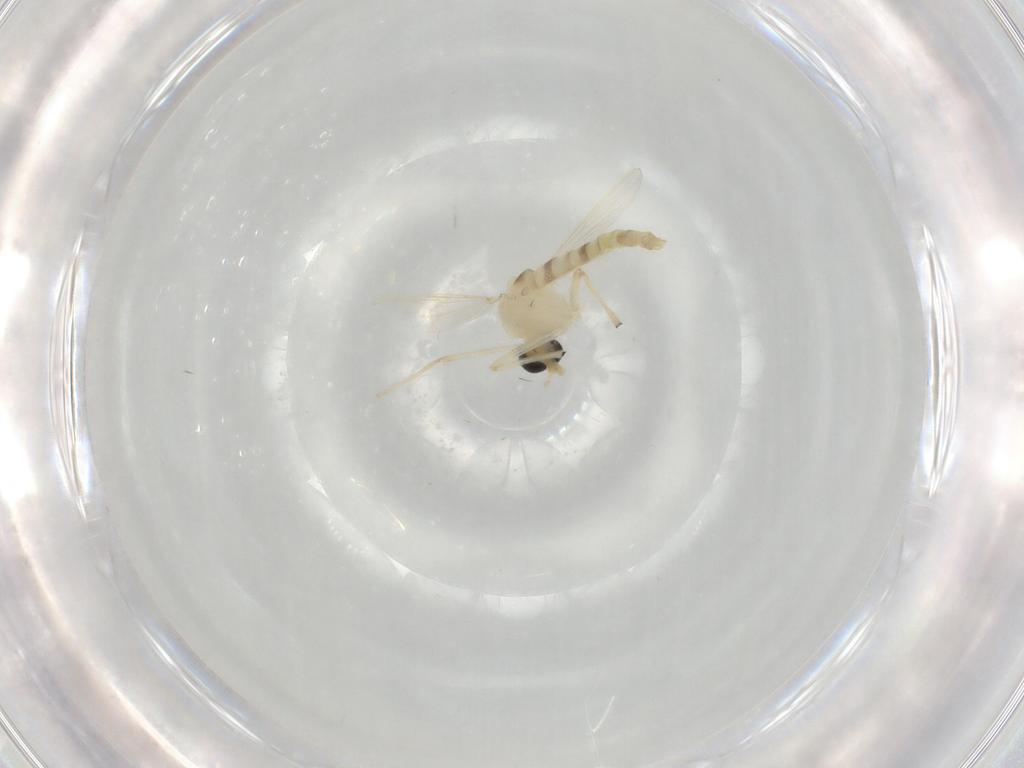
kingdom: Animalia
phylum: Arthropoda
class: Insecta
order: Diptera
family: Chironomidae
